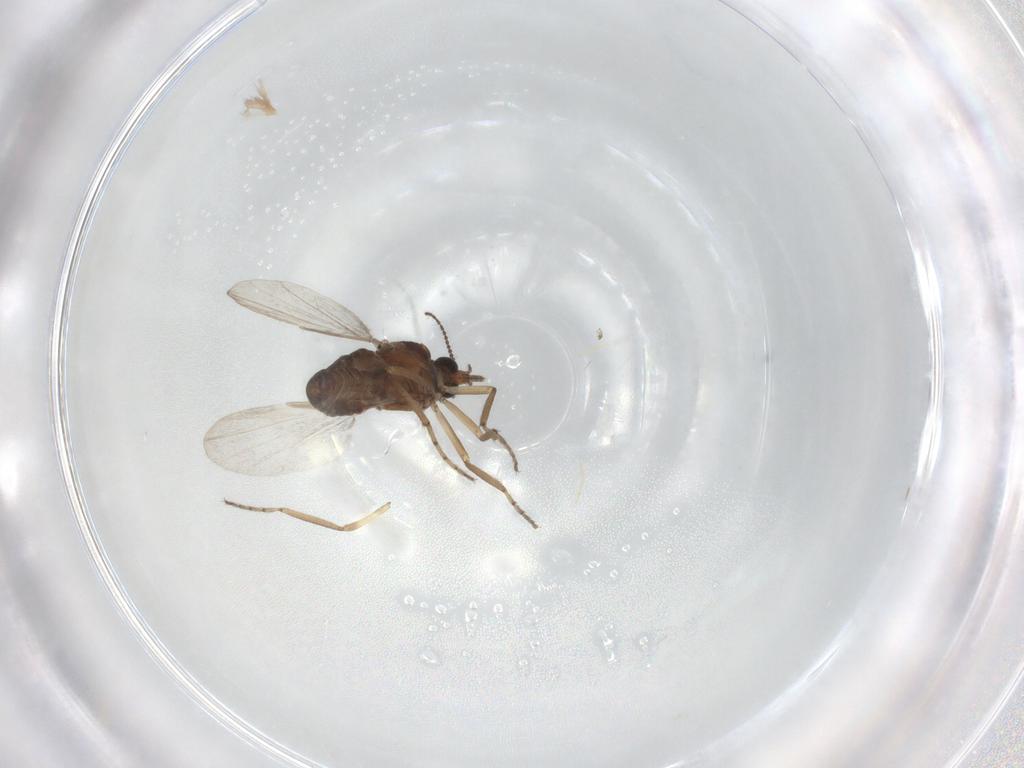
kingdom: Animalia
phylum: Arthropoda
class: Insecta
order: Diptera
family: Ceratopogonidae
